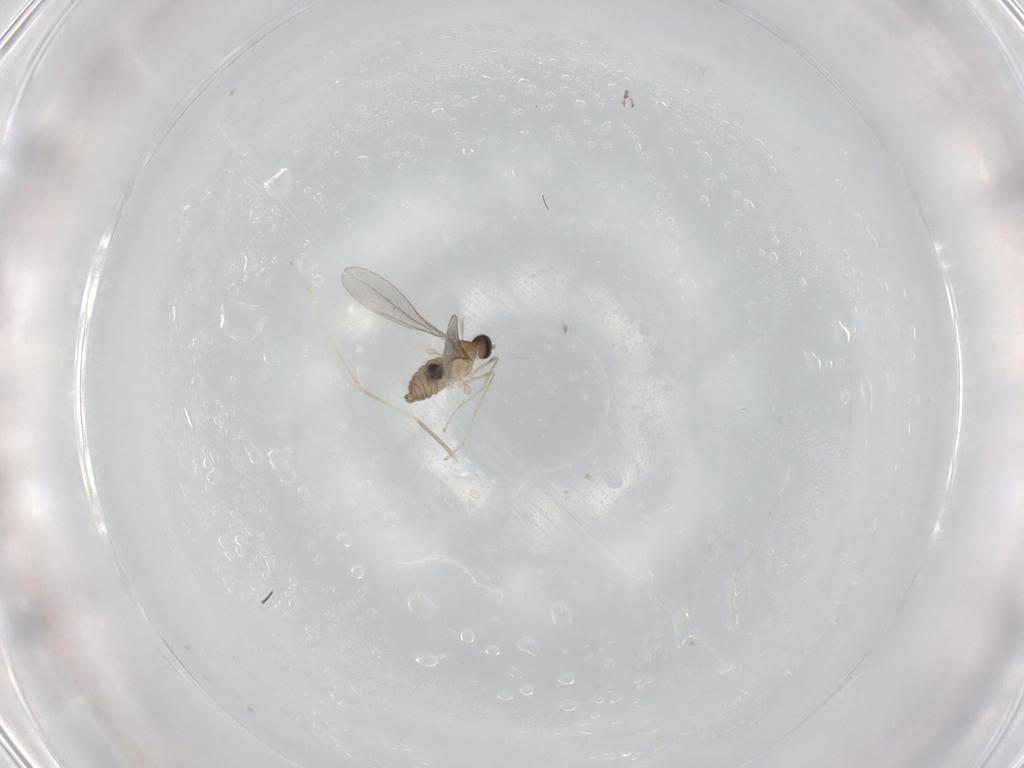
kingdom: Animalia
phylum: Arthropoda
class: Insecta
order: Diptera
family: Cecidomyiidae
